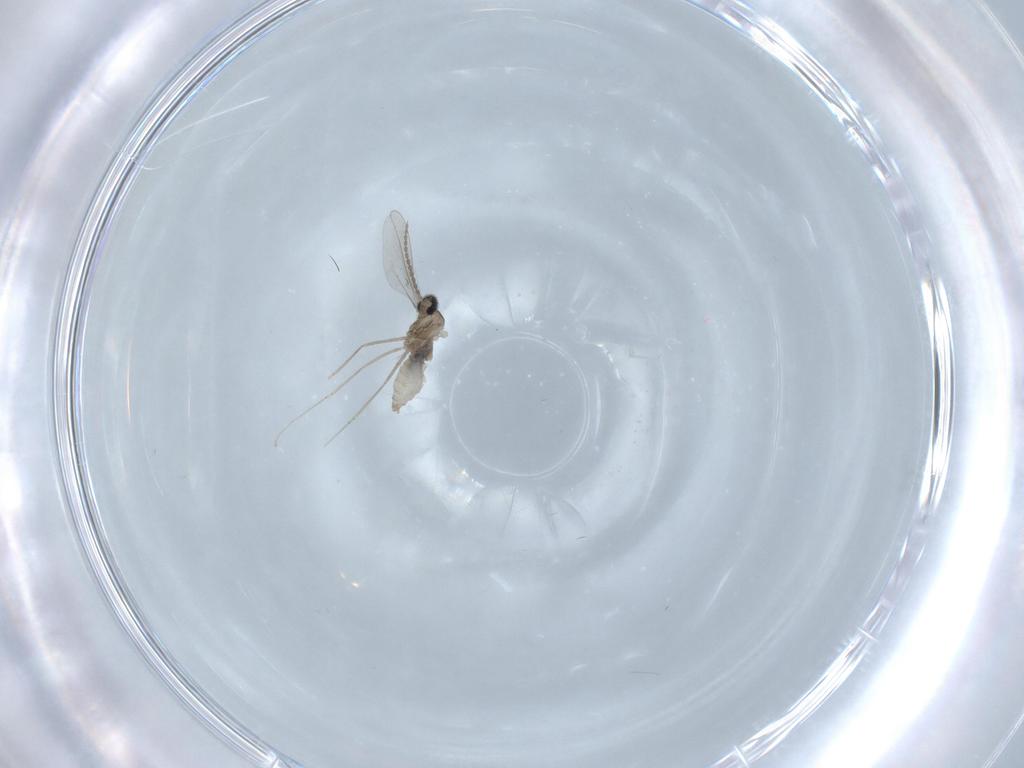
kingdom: Animalia
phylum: Arthropoda
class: Insecta
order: Diptera
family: Cecidomyiidae
